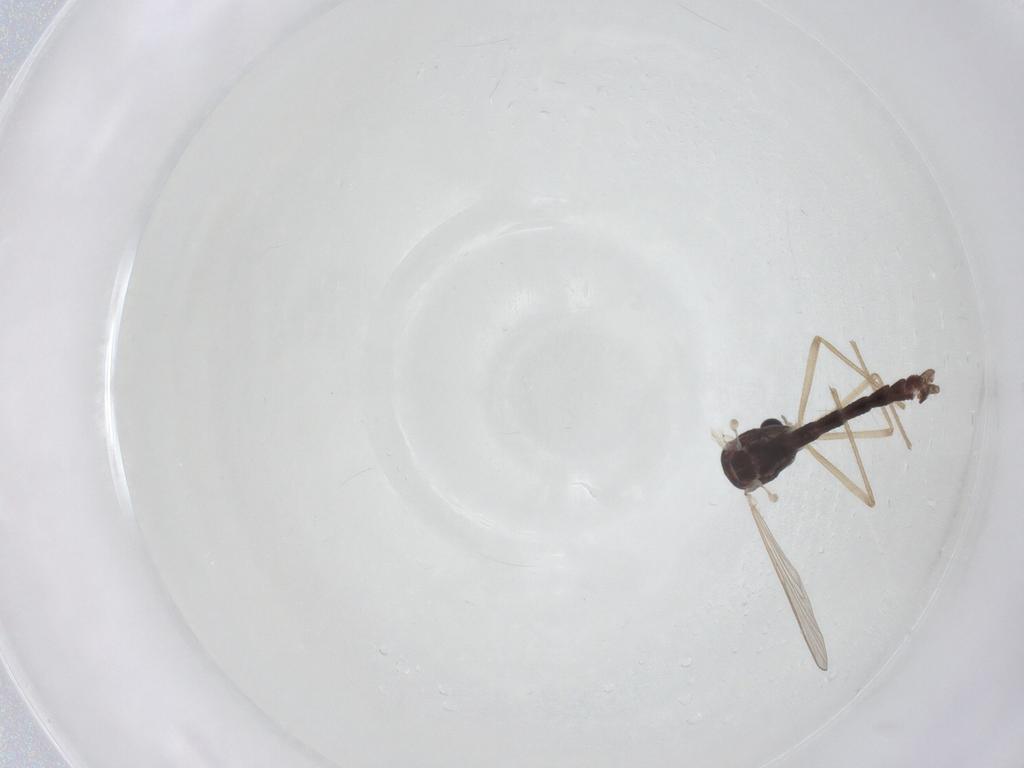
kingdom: Animalia
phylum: Arthropoda
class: Insecta
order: Diptera
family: Chironomidae
